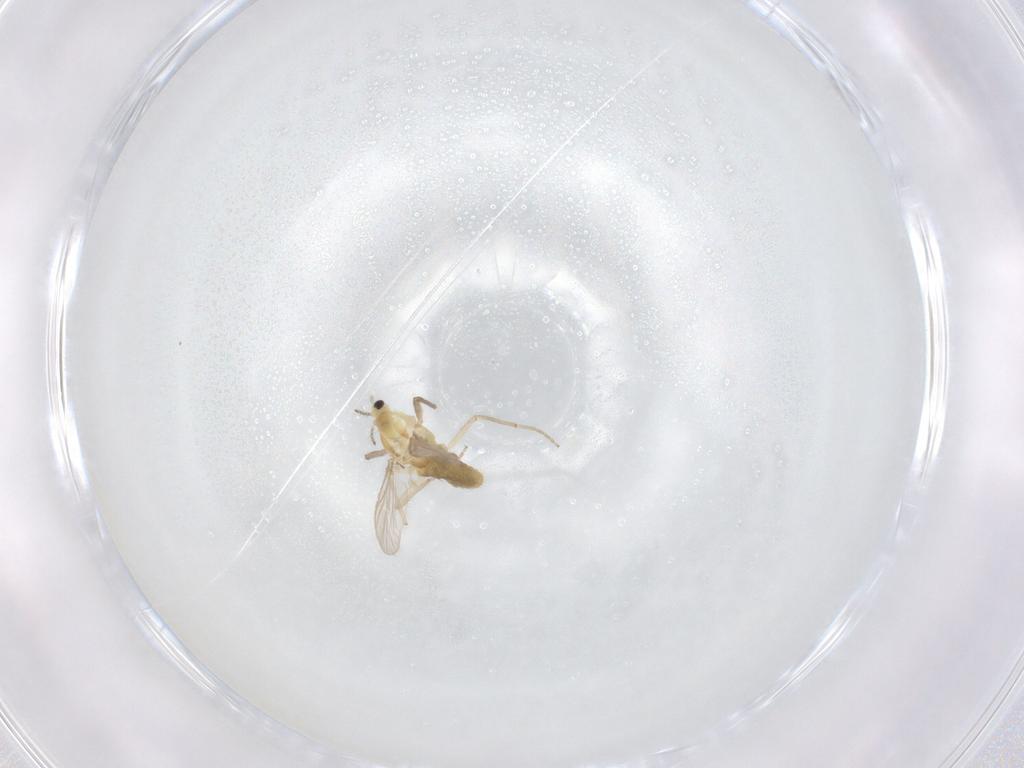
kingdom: Animalia
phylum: Arthropoda
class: Insecta
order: Diptera
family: Chironomidae
